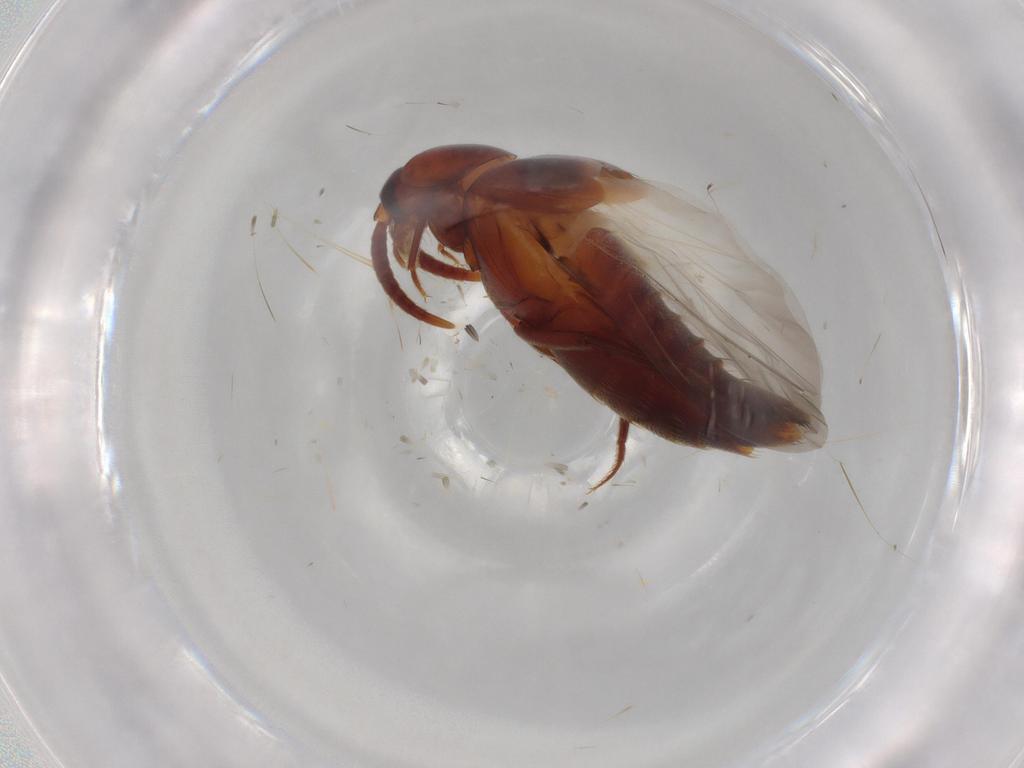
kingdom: Animalia
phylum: Arthropoda
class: Insecta
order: Coleoptera
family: Staphylinidae
